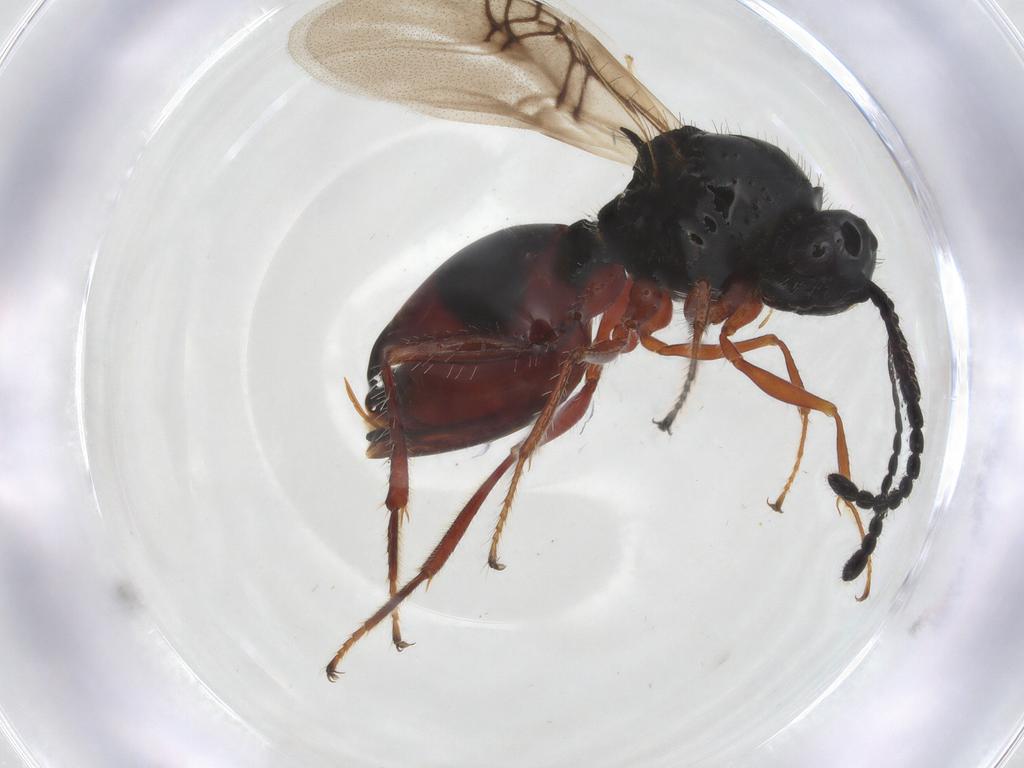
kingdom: Animalia
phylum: Arthropoda
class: Insecta
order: Hymenoptera
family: Figitidae
